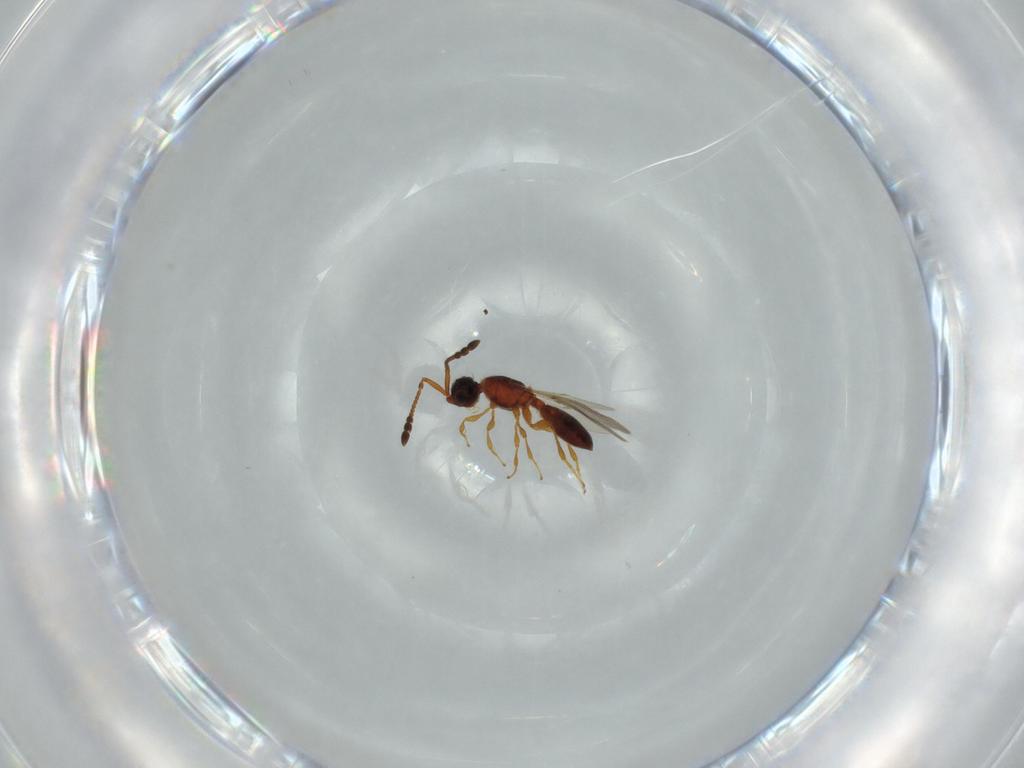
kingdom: Animalia
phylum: Arthropoda
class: Insecta
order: Hymenoptera
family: Diapriidae
